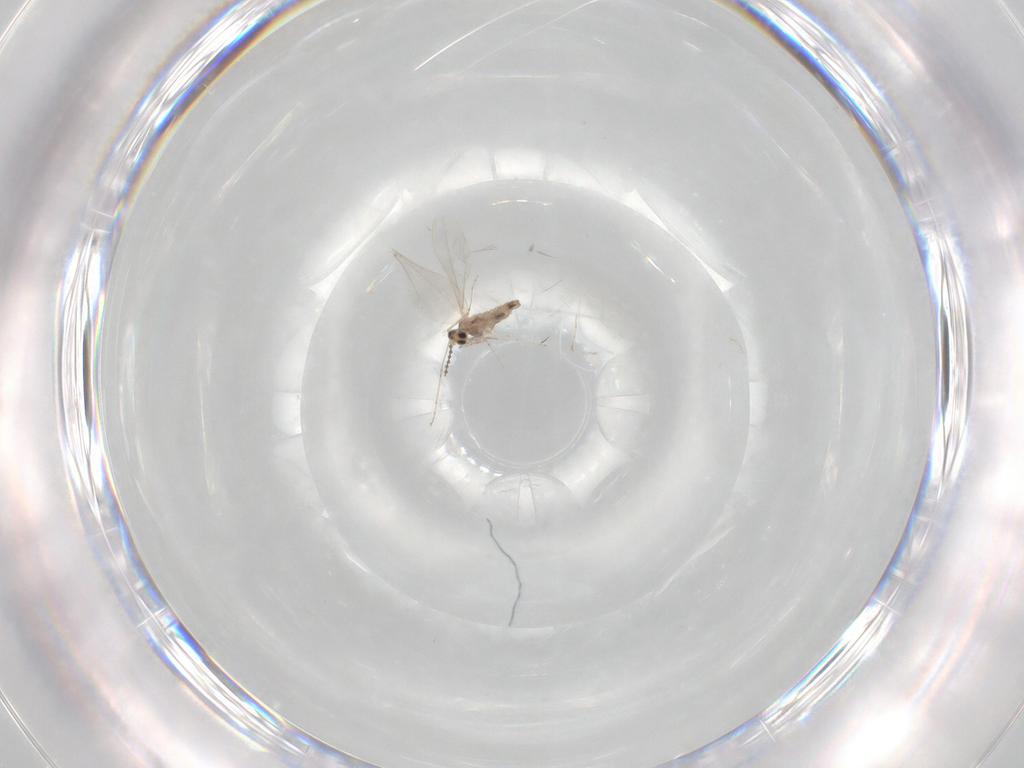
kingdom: Animalia
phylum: Arthropoda
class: Insecta
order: Diptera
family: Cecidomyiidae
